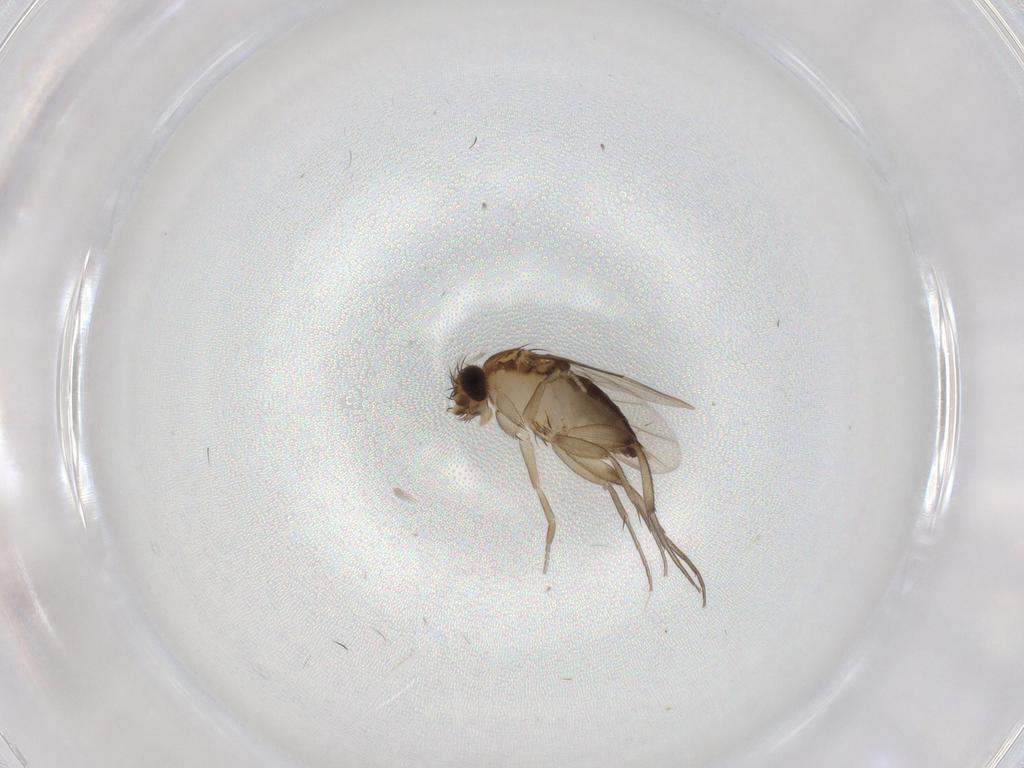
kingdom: Animalia
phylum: Arthropoda
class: Insecta
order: Diptera
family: Phoridae
